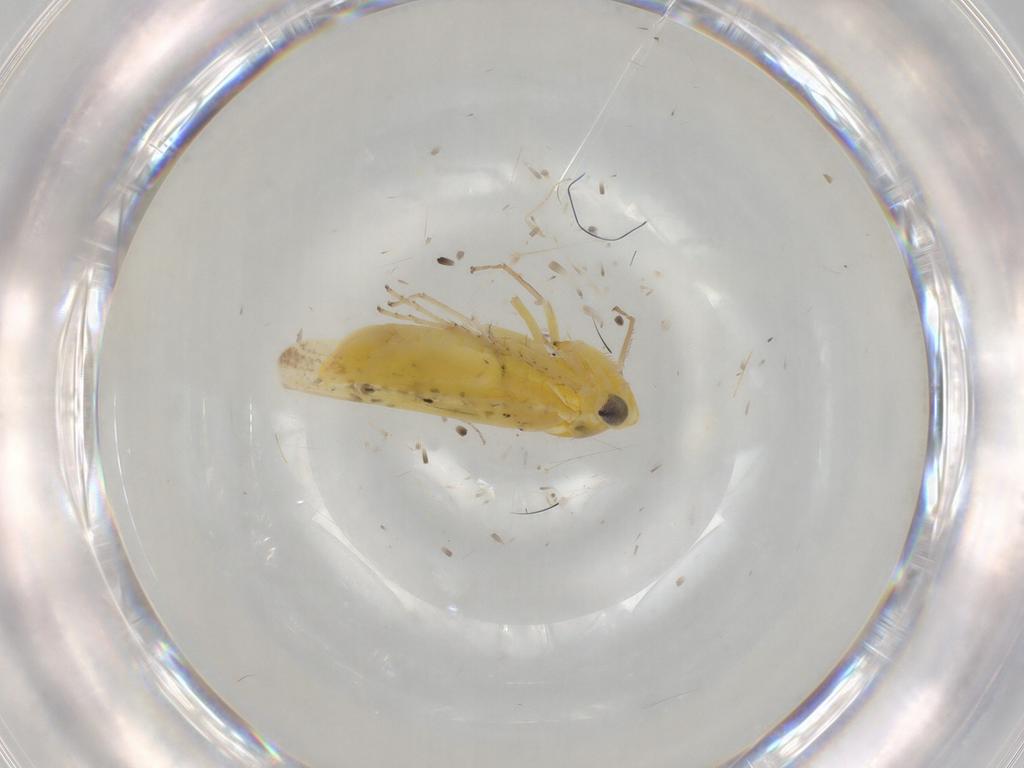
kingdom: Animalia
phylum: Arthropoda
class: Insecta
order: Hemiptera
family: Cicadellidae
